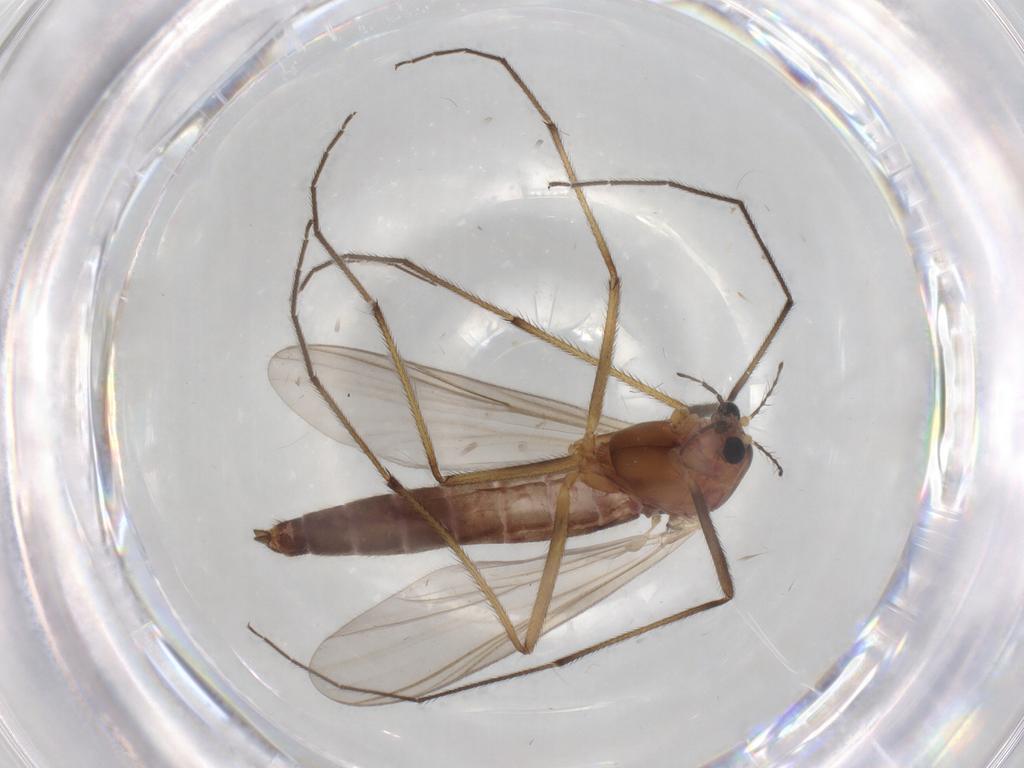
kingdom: Animalia
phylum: Arthropoda
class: Insecta
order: Diptera
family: Chironomidae
